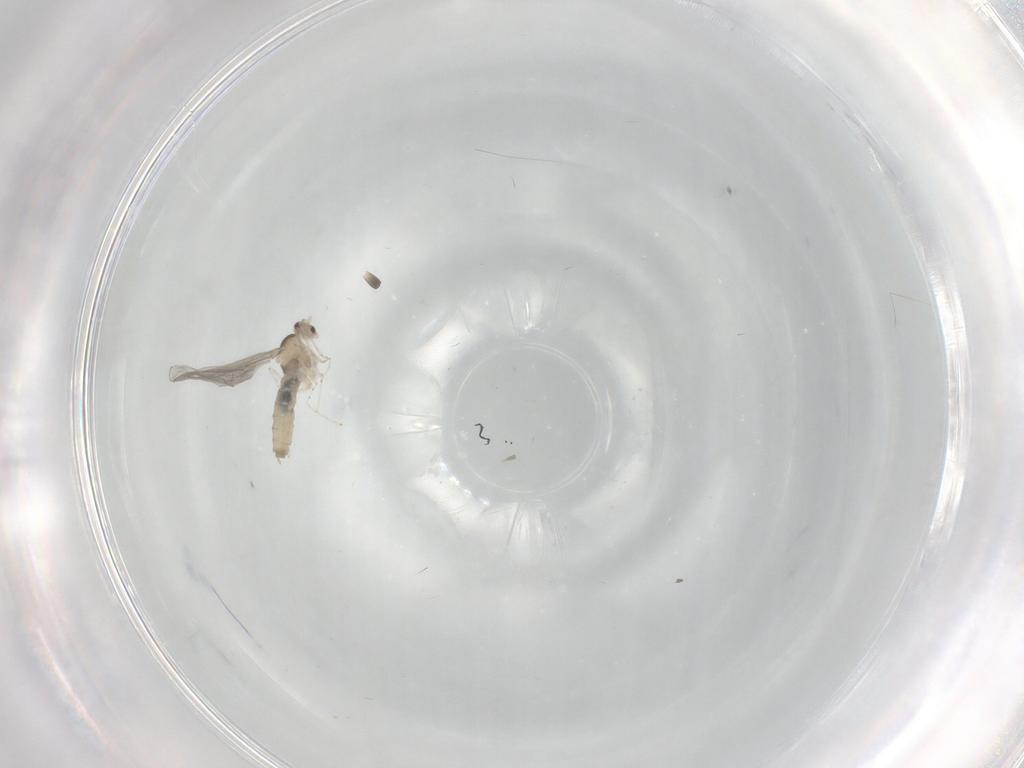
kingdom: Animalia
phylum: Arthropoda
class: Insecta
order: Diptera
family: Cecidomyiidae
